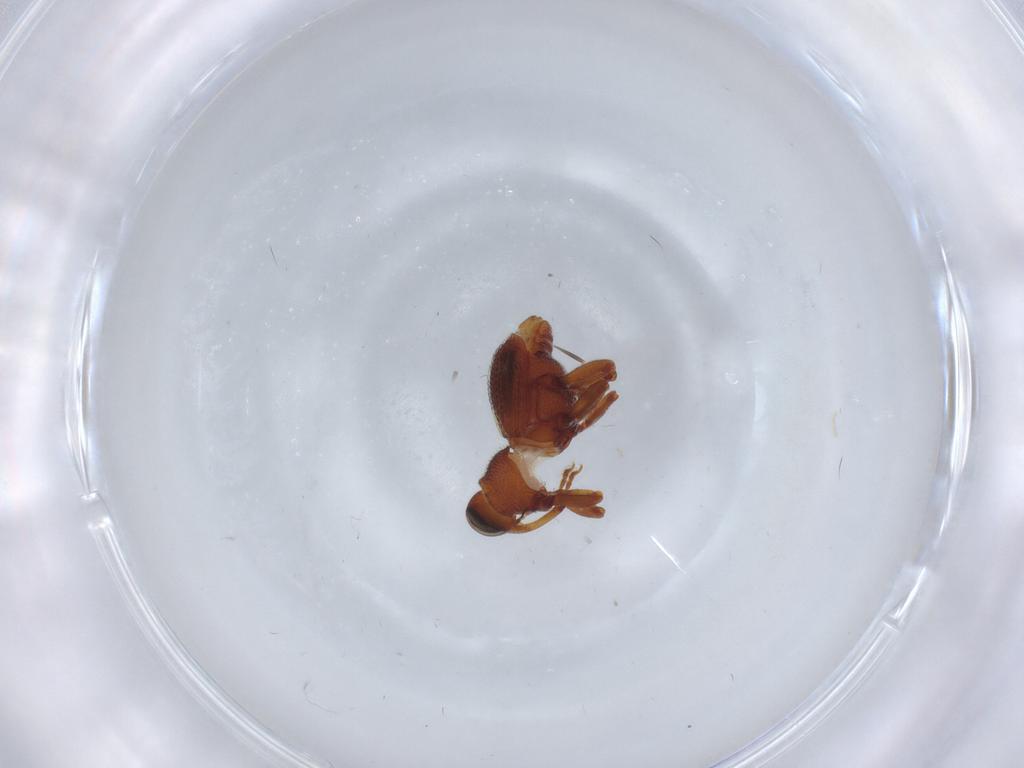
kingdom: Animalia
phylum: Arthropoda
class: Insecta
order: Coleoptera
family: Curculionidae
